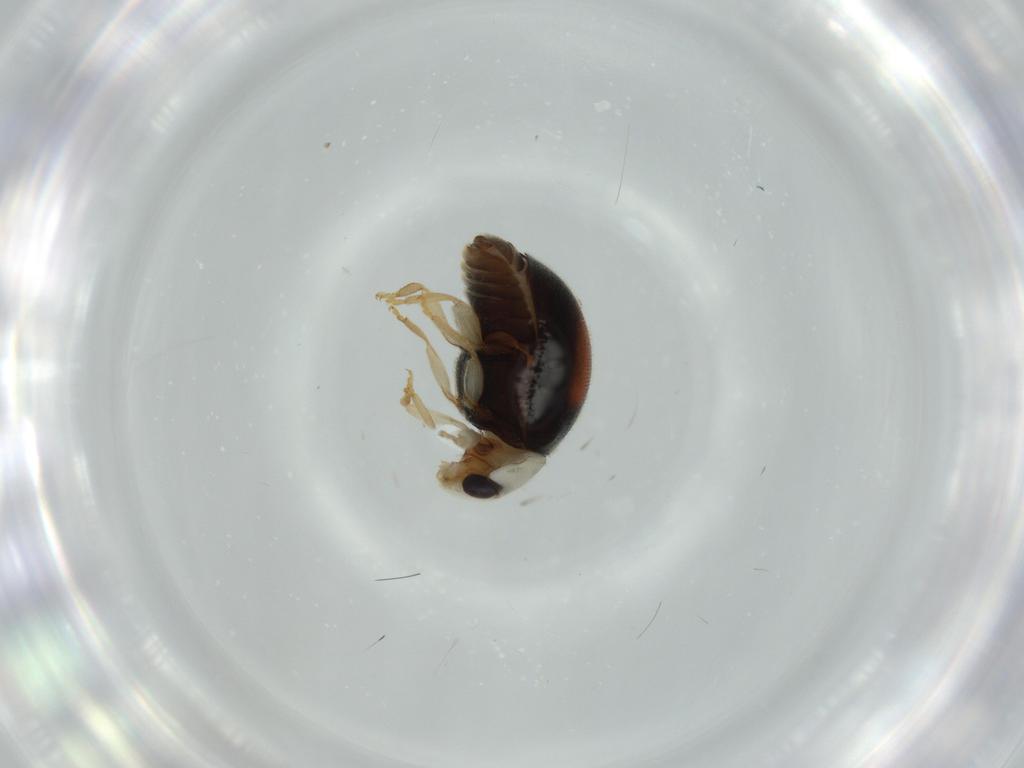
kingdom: Animalia
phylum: Arthropoda
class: Insecta
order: Coleoptera
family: Coccinellidae
